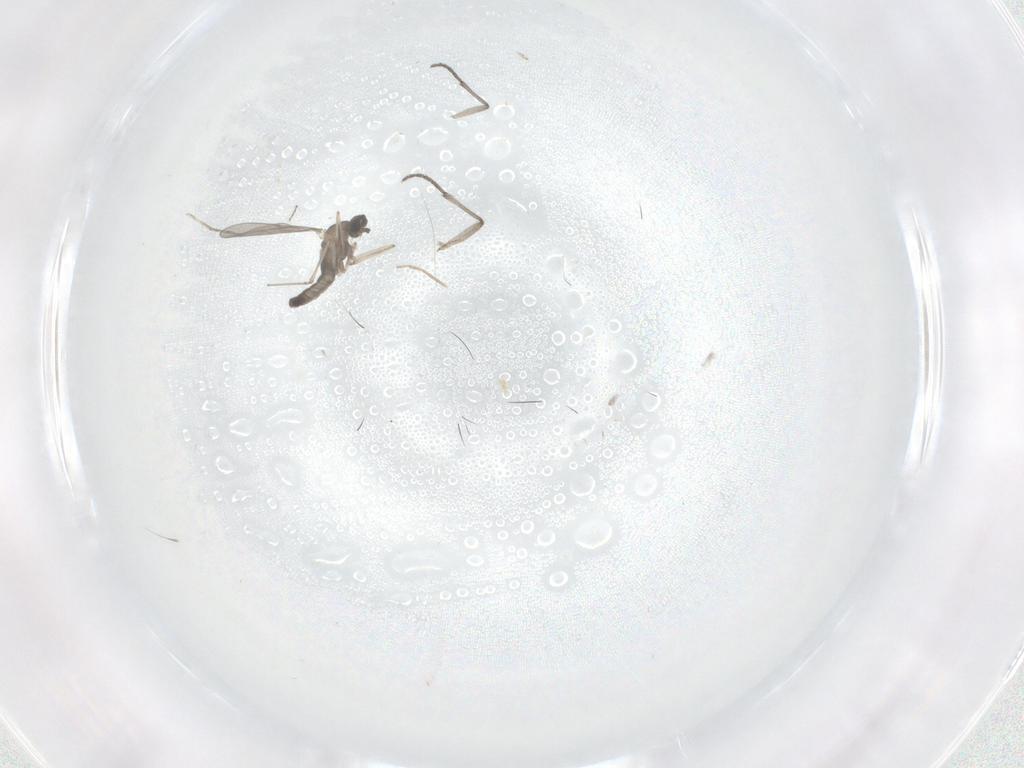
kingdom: Animalia
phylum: Arthropoda
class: Insecta
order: Diptera
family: Cecidomyiidae
